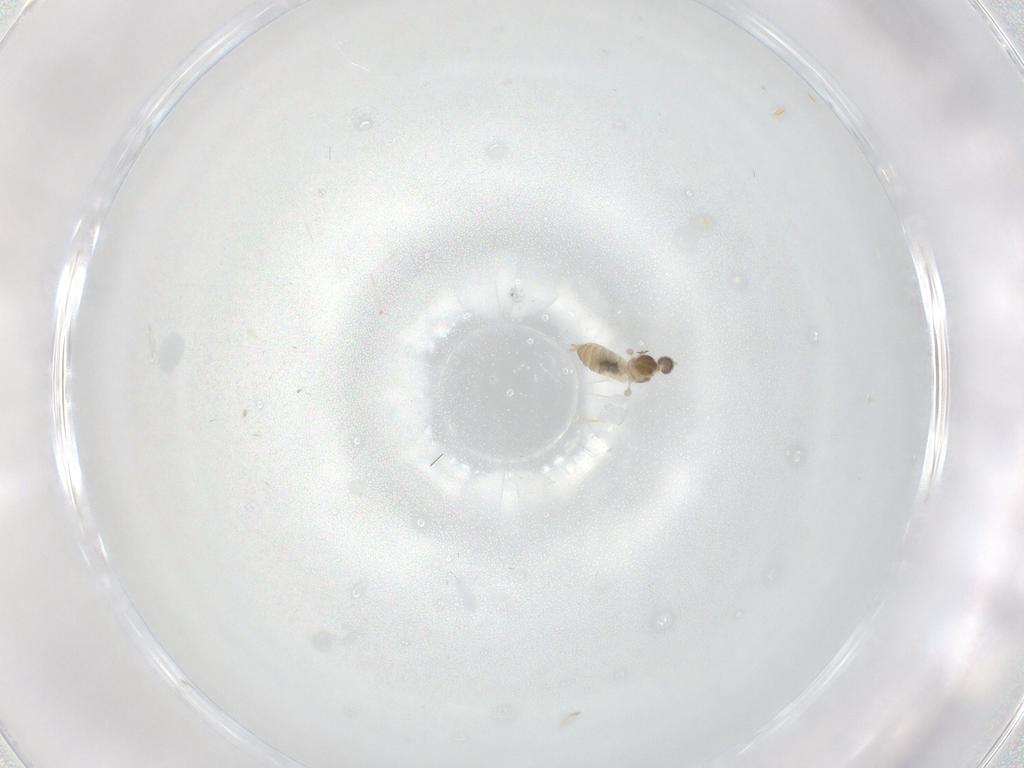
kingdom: Animalia
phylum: Arthropoda
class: Insecta
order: Diptera
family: Cecidomyiidae
